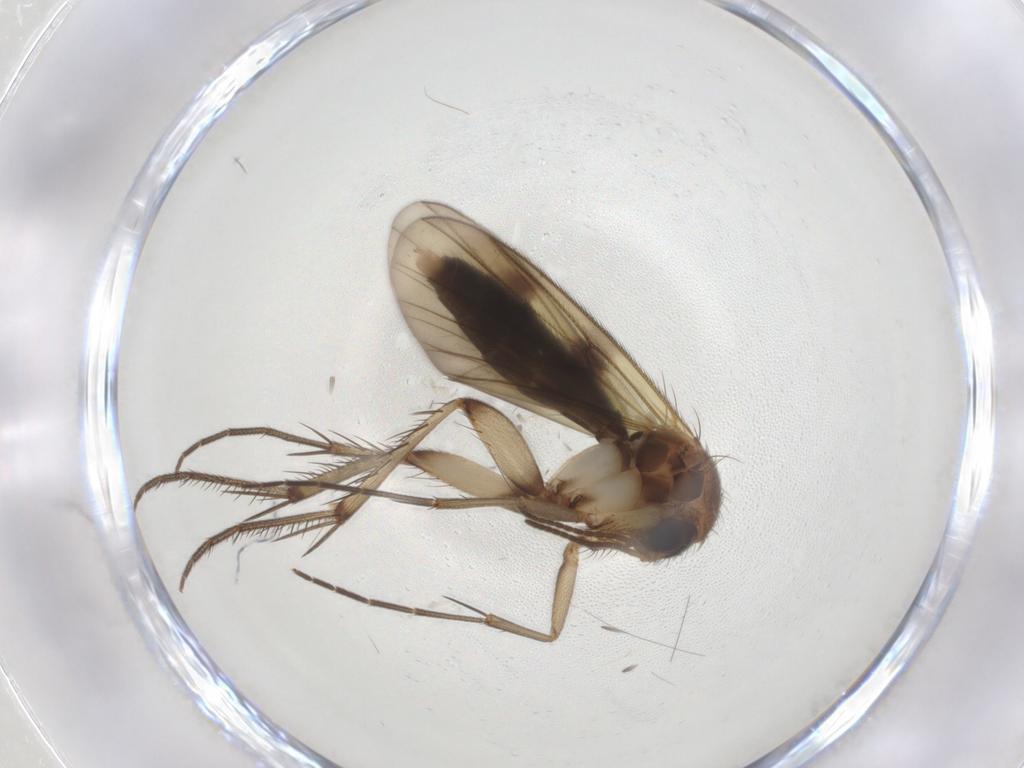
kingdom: Animalia
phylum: Arthropoda
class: Insecta
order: Diptera
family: Mycetophilidae
